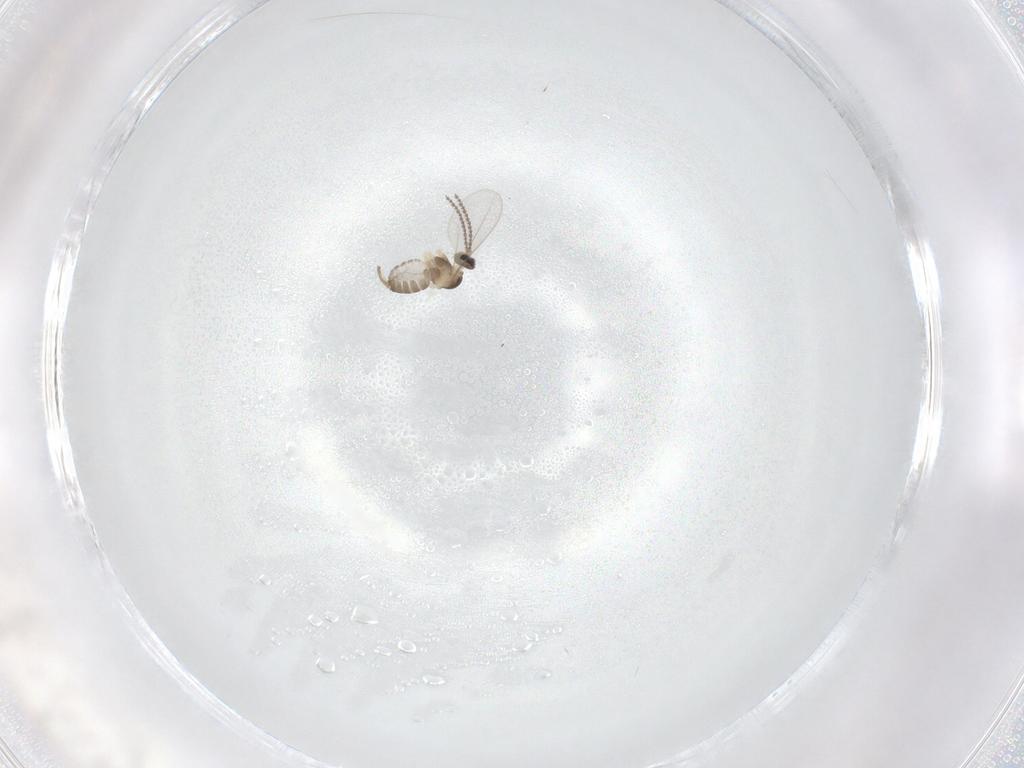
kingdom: Animalia
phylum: Arthropoda
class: Insecta
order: Diptera
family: Cecidomyiidae
